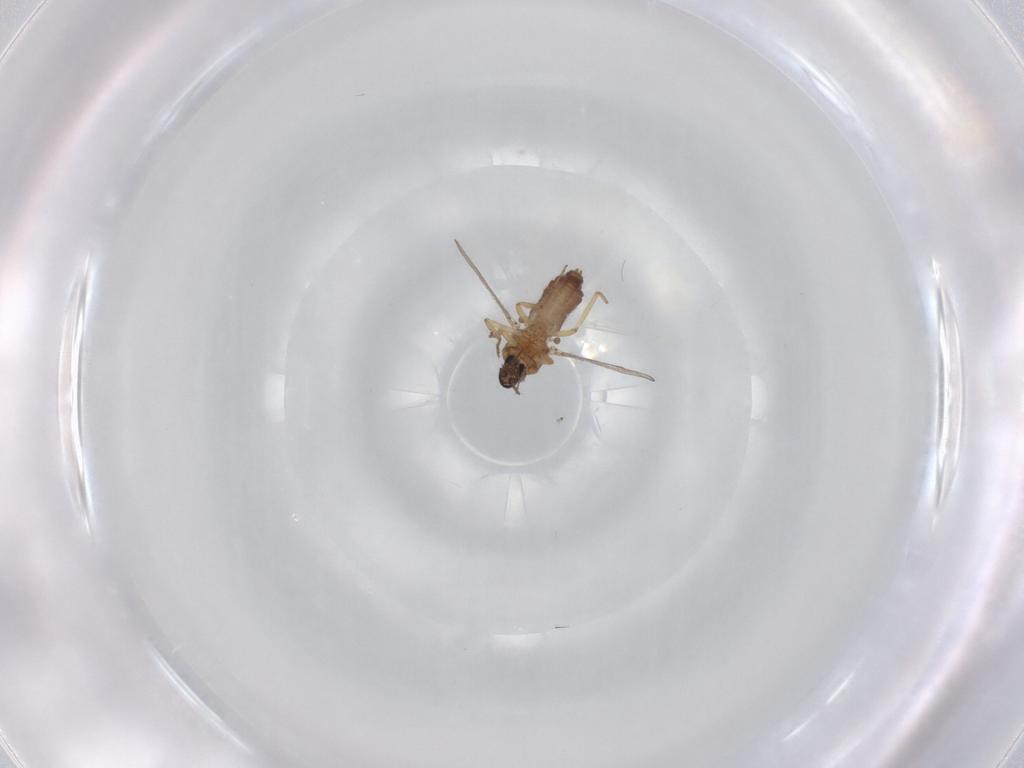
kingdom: Animalia
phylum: Arthropoda
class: Insecta
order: Diptera
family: Ceratopogonidae
